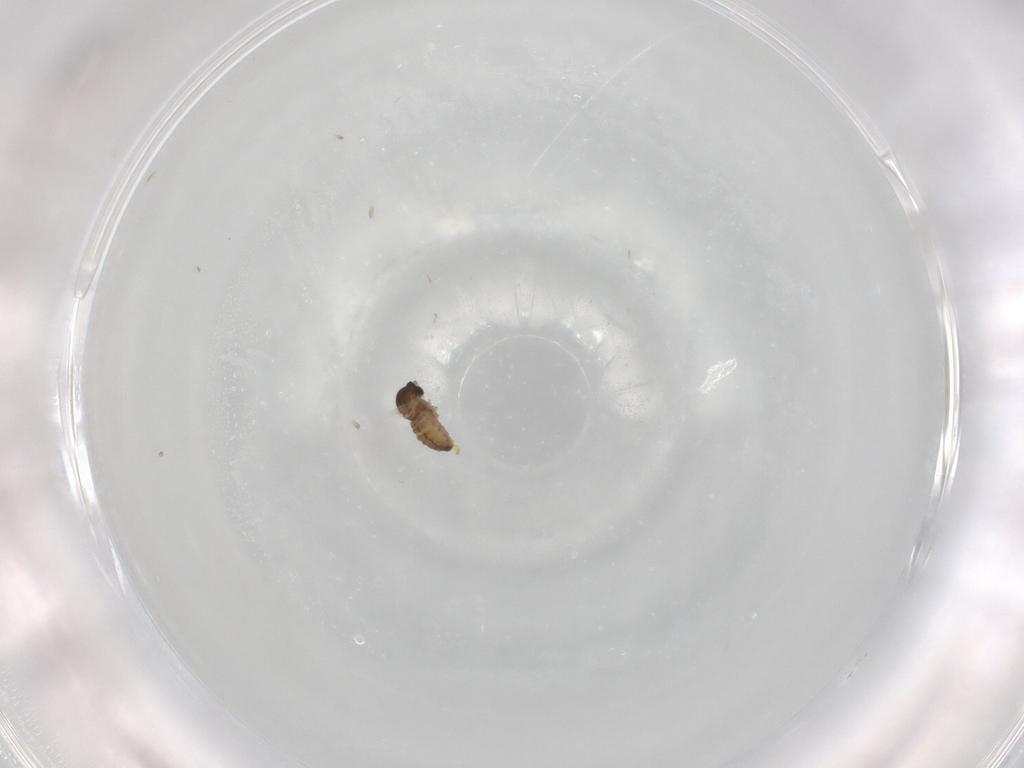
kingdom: Animalia
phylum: Arthropoda
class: Insecta
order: Diptera
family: Cecidomyiidae
